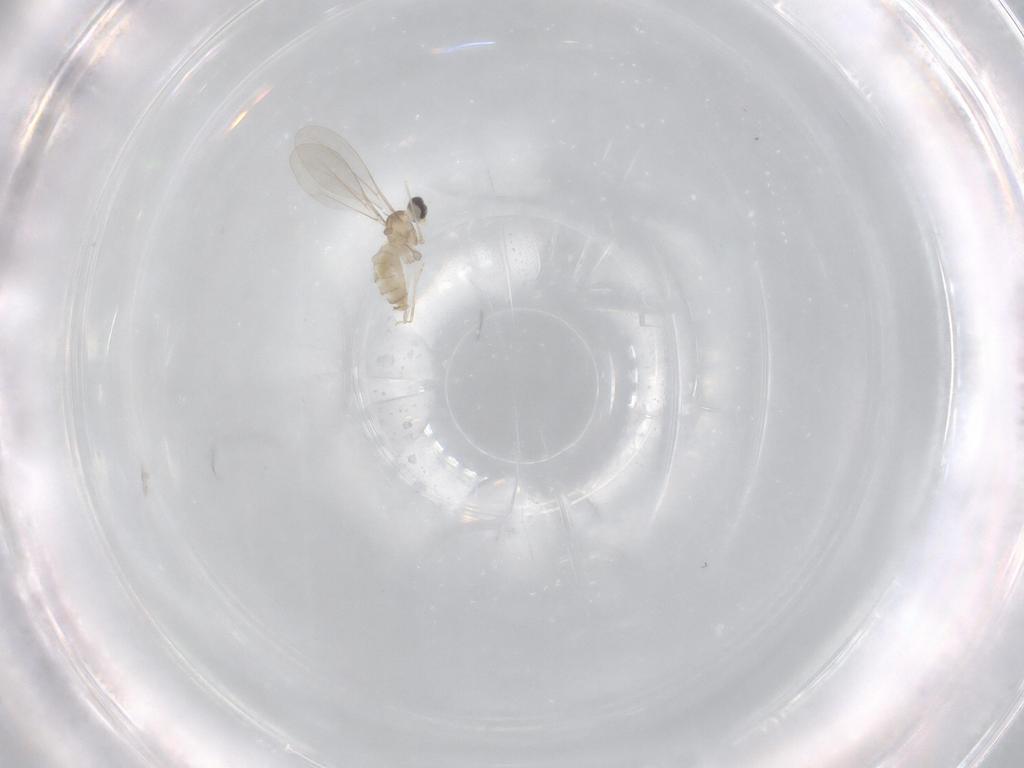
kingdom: Animalia
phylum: Arthropoda
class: Insecta
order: Diptera
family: Cecidomyiidae
